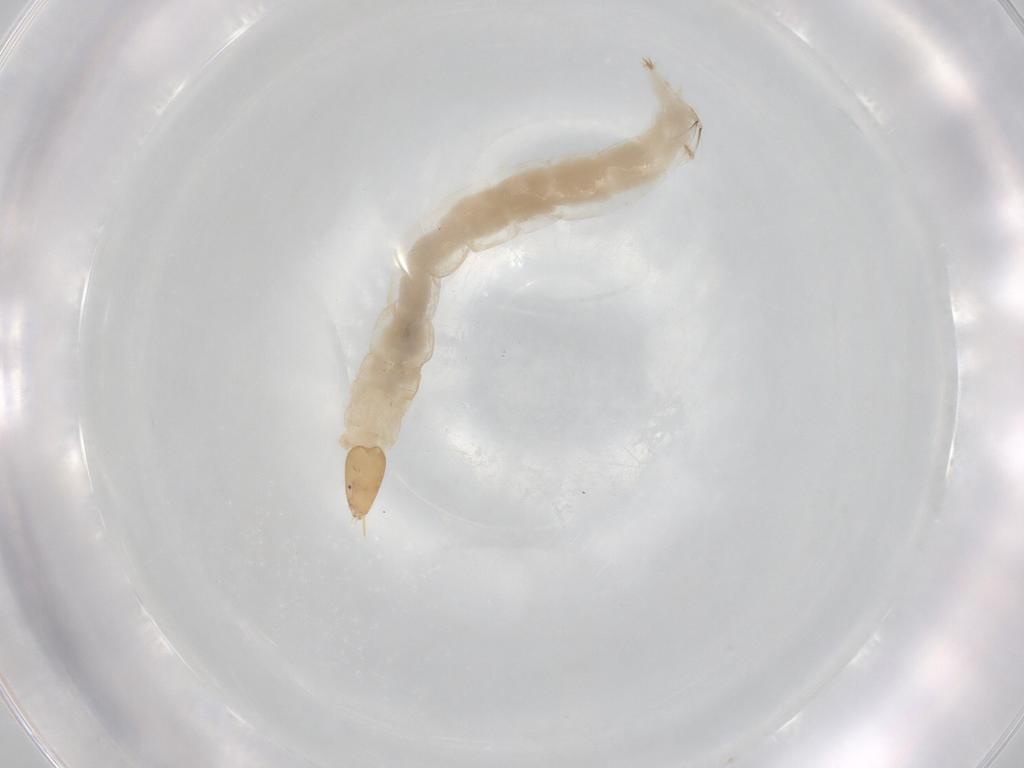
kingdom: Animalia
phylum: Arthropoda
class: Insecta
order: Diptera
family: Chironomidae
